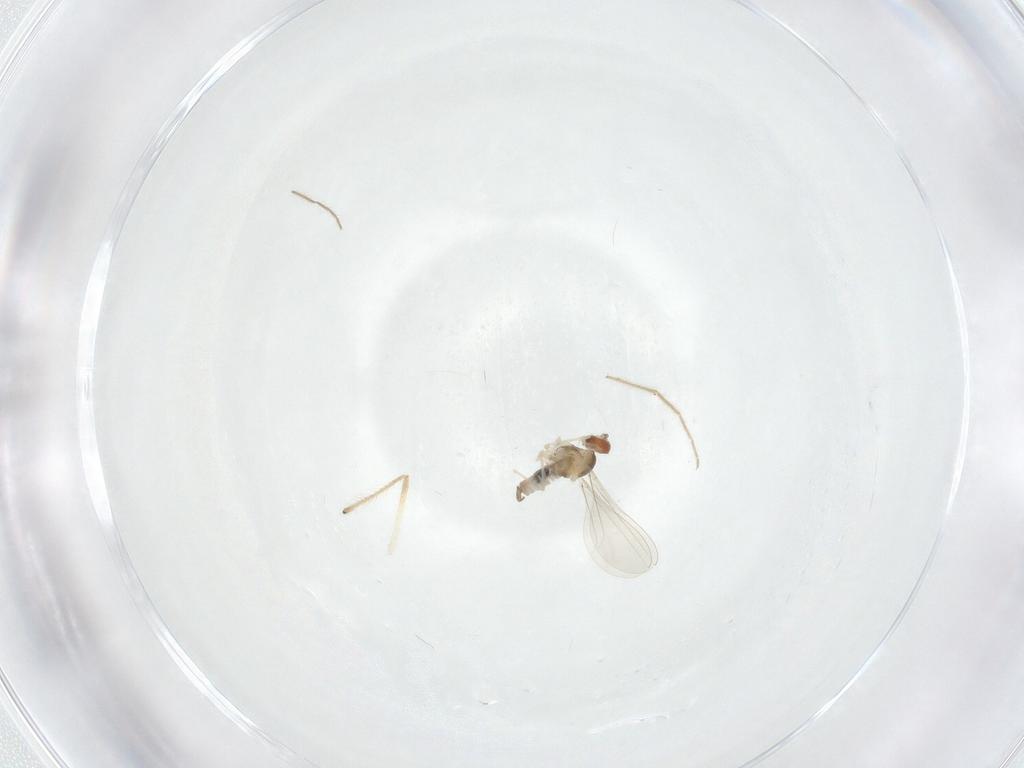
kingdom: Animalia
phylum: Arthropoda
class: Insecta
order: Diptera
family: Cecidomyiidae
